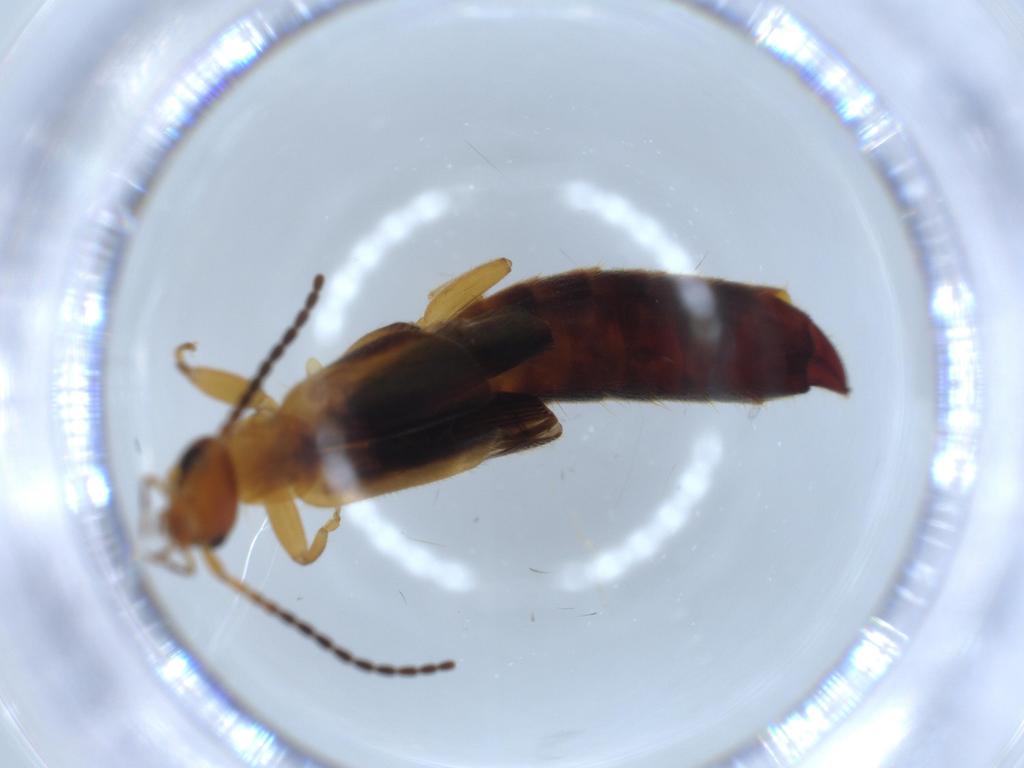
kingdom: Animalia
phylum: Arthropoda
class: Insecta
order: Dermaptera
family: Forficulidae
